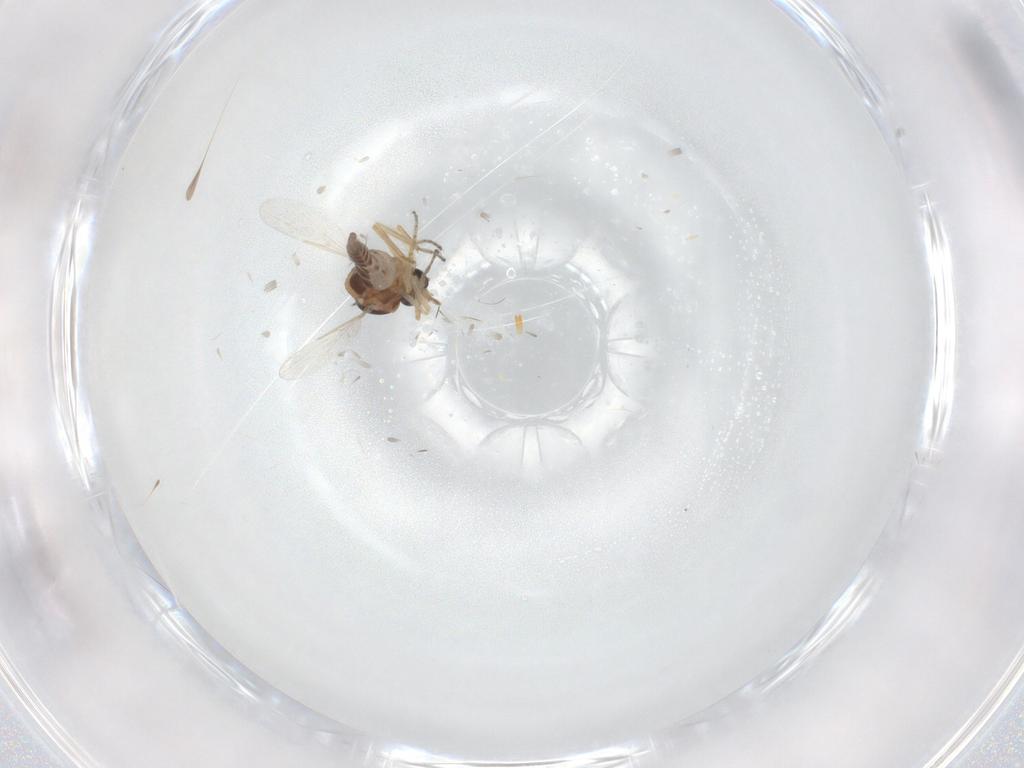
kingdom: Animalia
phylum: Arthropoda
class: Insecta
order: Diptera
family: Ceratopogonidae
